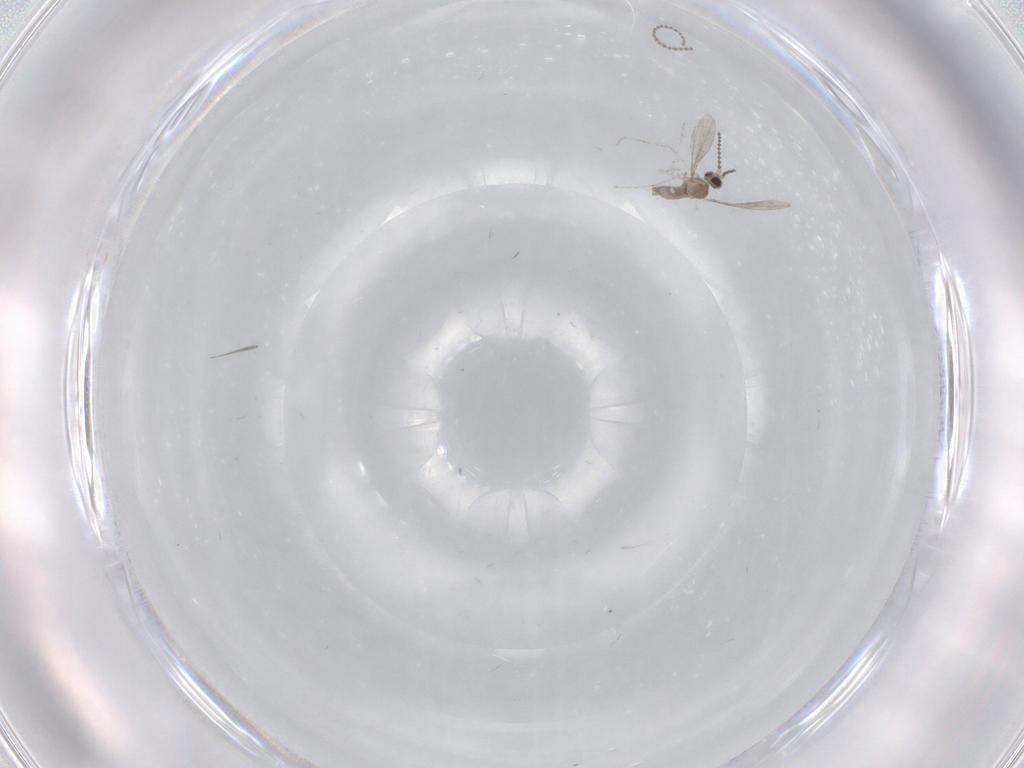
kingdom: Animalia
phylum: Arthropoda
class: Insecta
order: Diptera
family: Cecidomyiidae
